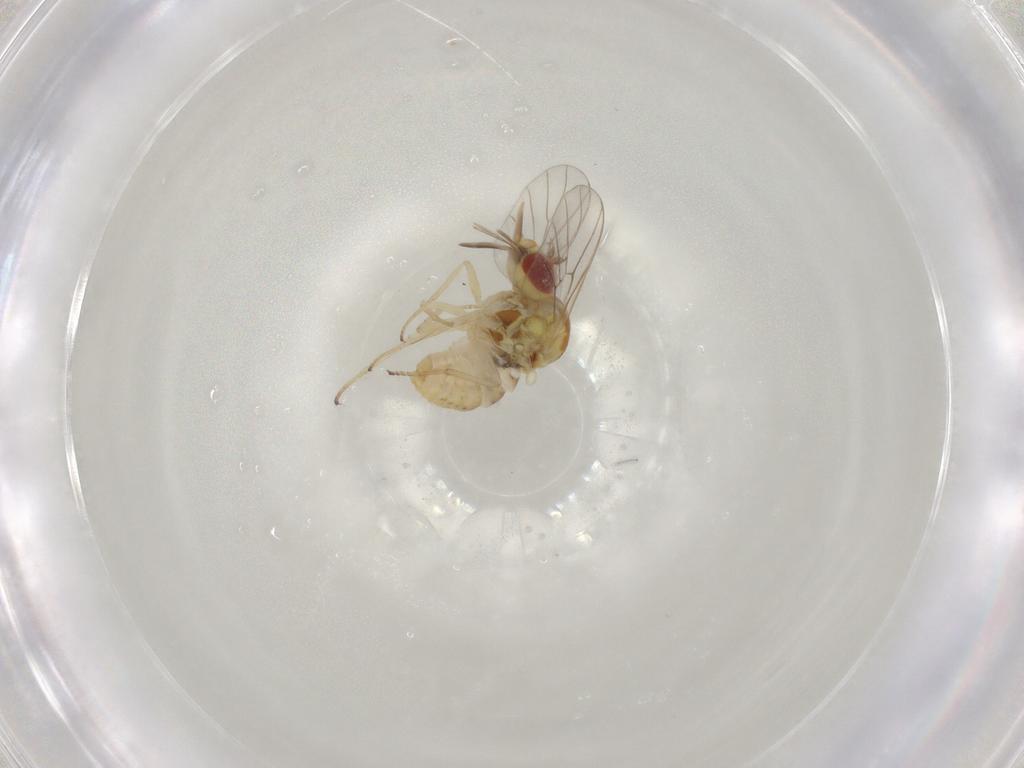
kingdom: Animalia
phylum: Arthropoda
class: Insecta
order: Diptera
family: Bombyliidae
